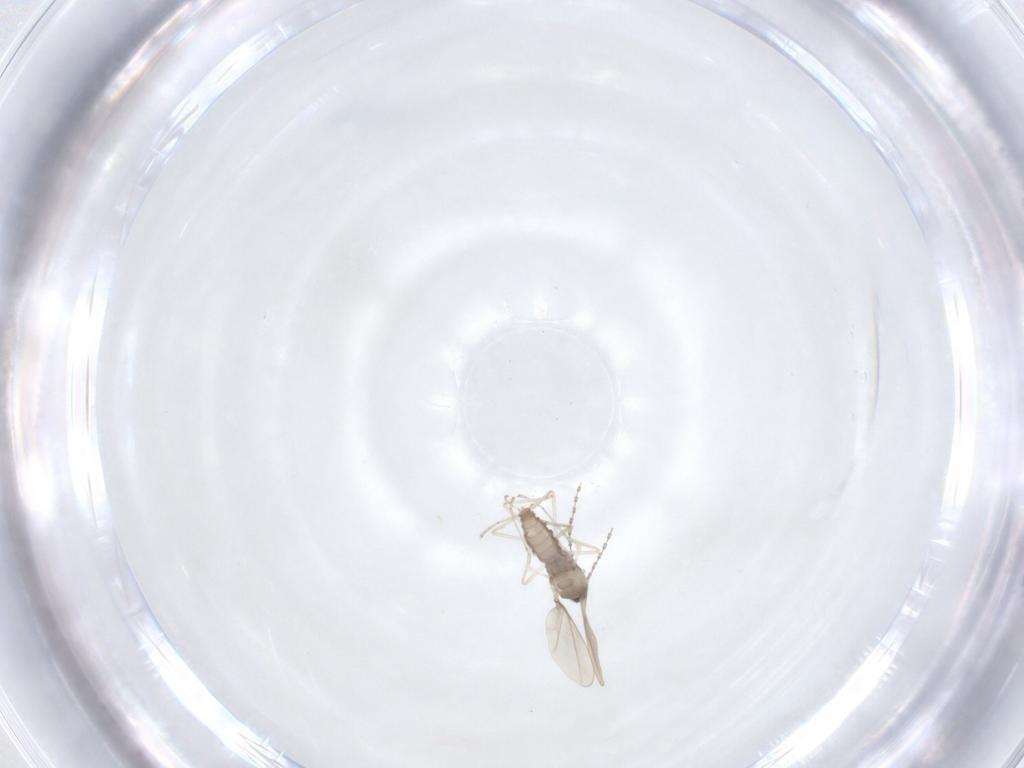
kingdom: Animalia
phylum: Arthropoda
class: Insecta
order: Diptera
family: Cecidomyiidae
